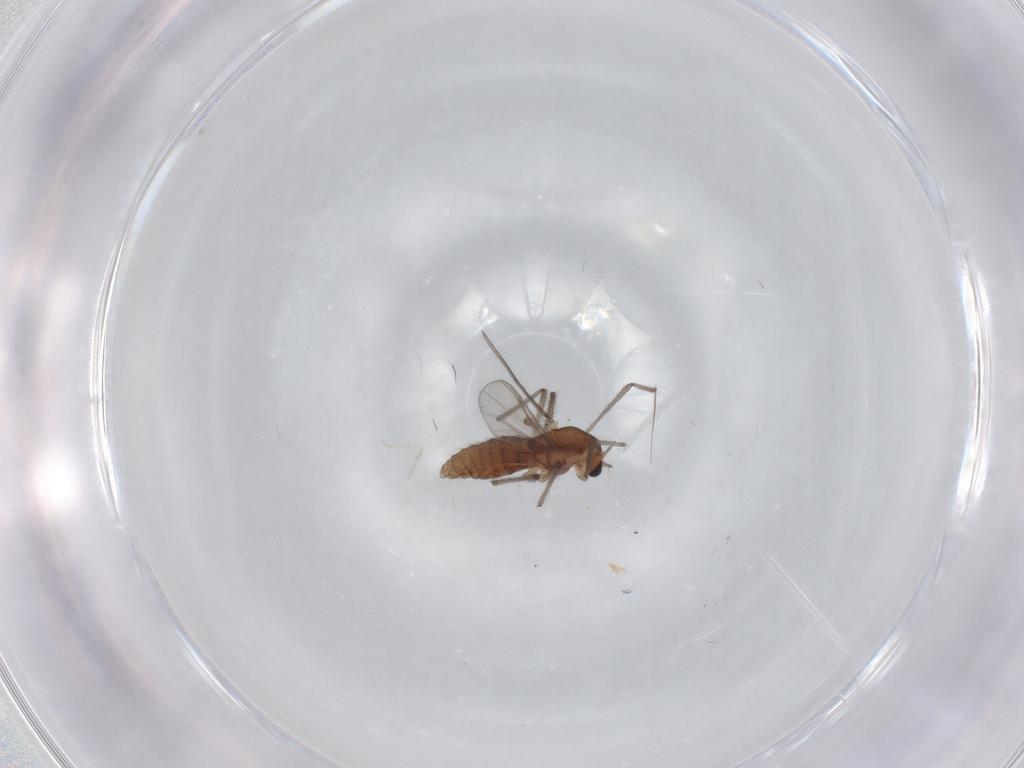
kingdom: Animalia
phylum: Arthropoda
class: Insecta
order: Diptera
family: Chironomidae
